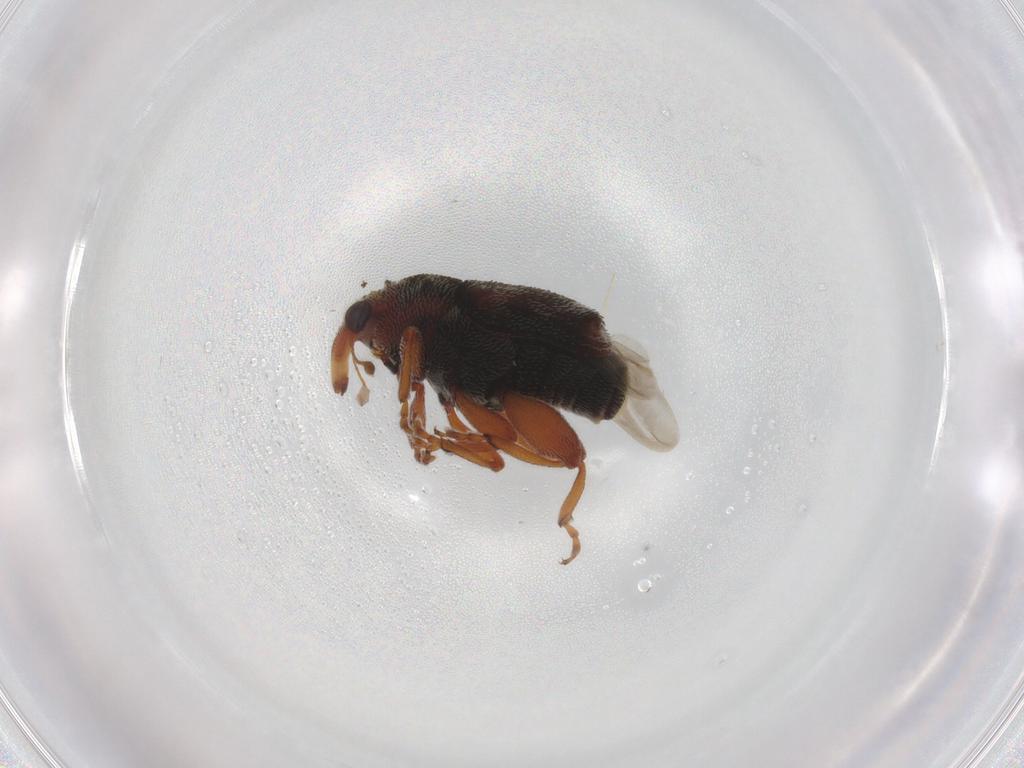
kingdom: Animalia
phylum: Arthropoda
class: Insecta
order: Coleoptera
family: Curculionidae
